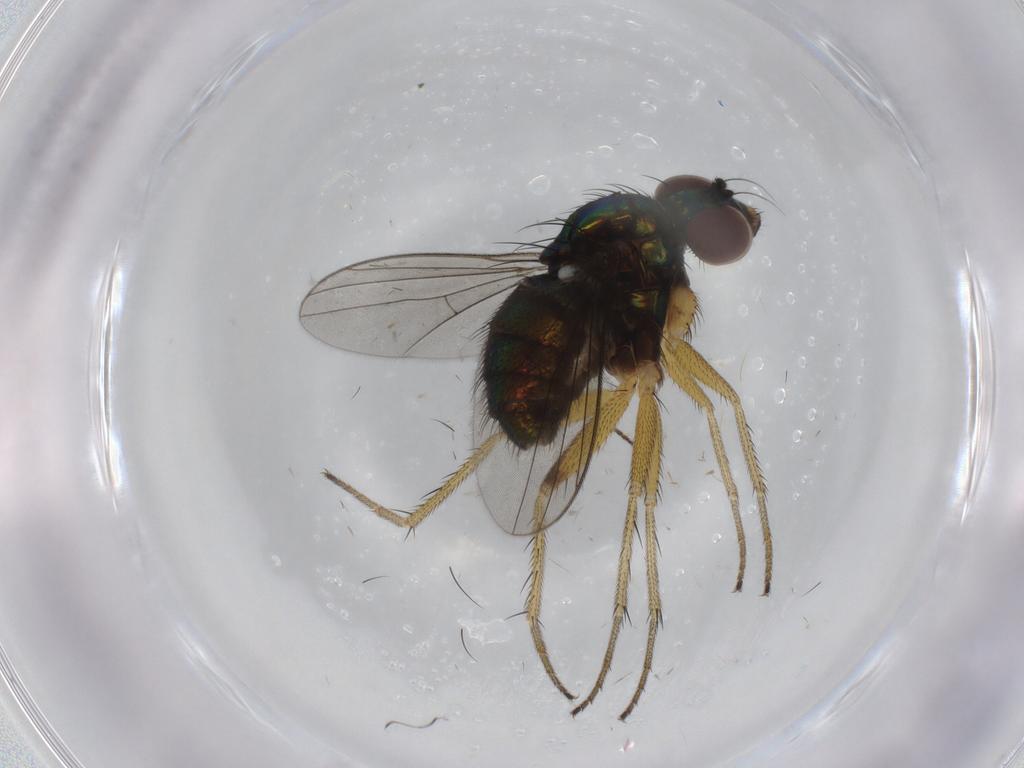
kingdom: Animalia
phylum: Arthropoda
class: Insecta
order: Diptera
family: Dolichopodidae
